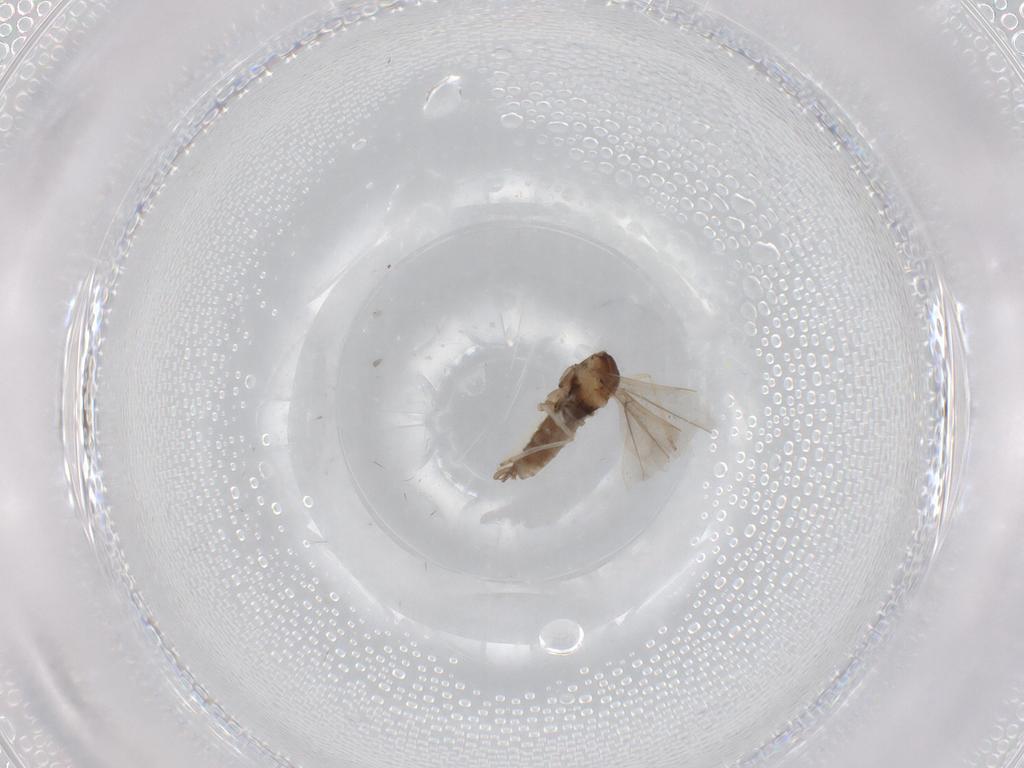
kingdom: Animalia
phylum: Arthropoda
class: Insecta
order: Diptera
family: Cecidomyiidae
